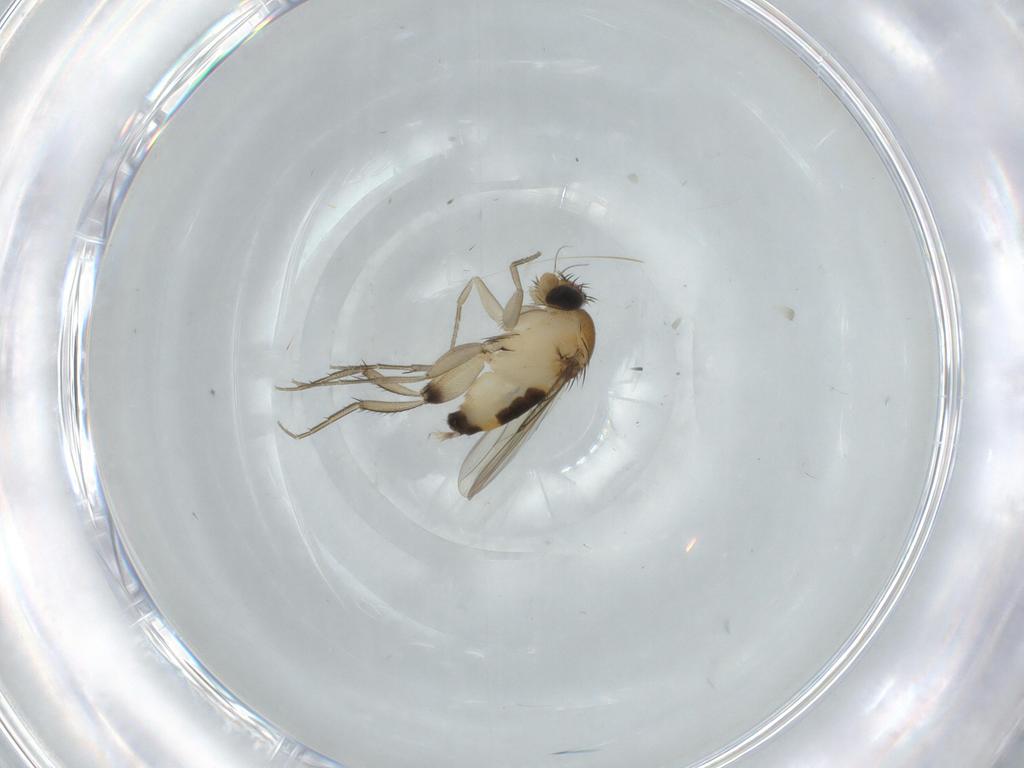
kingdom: Animalia
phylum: Arthropoda
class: Insecta
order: Diptera
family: Phoridae
